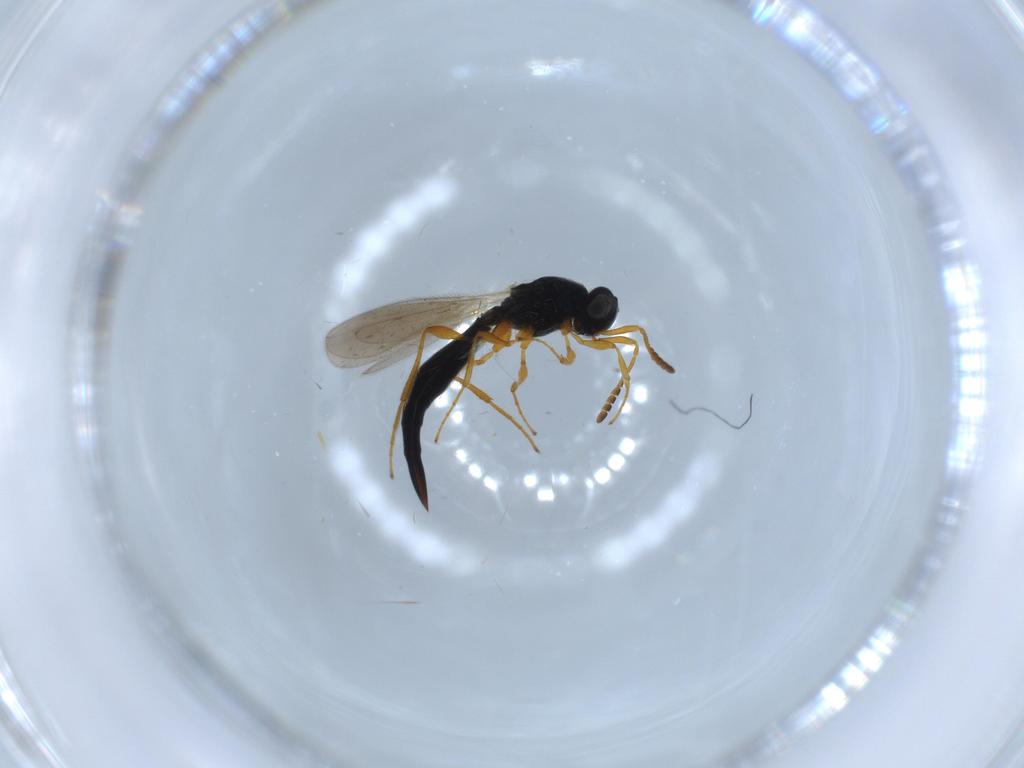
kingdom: Animalia
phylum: Arthropoda
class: Insecta
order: Hymenoptera
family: Platygastridae
